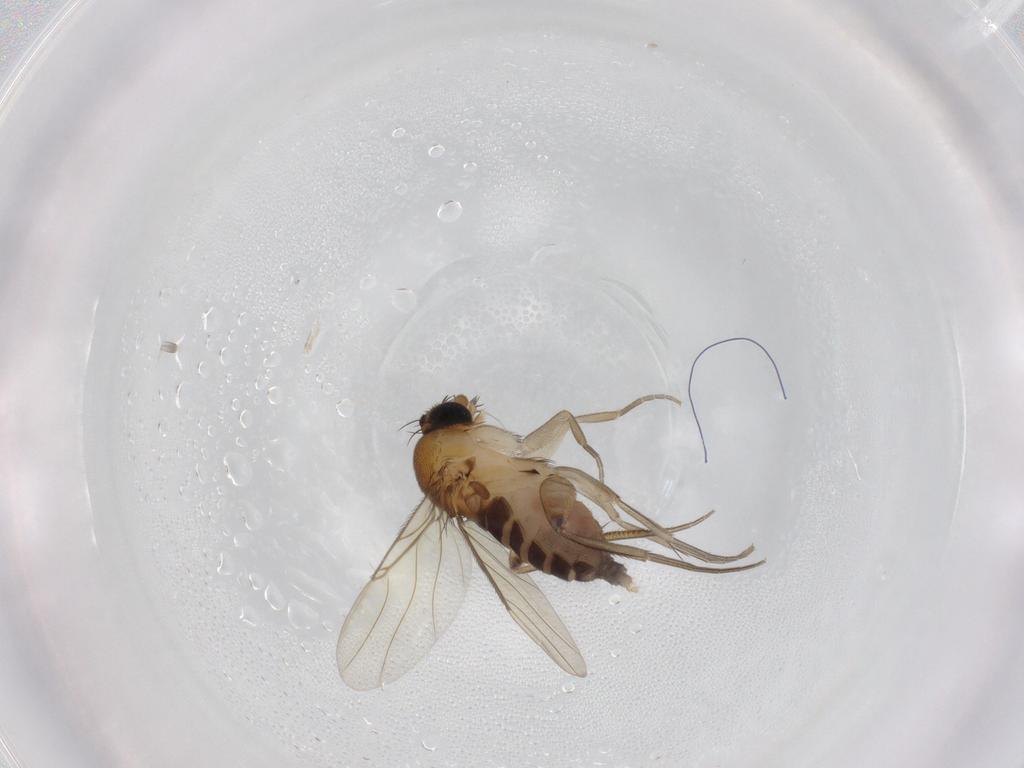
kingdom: Animalia
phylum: Arthropoda
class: Insecta
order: Diptera
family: Cecidomyiidae
